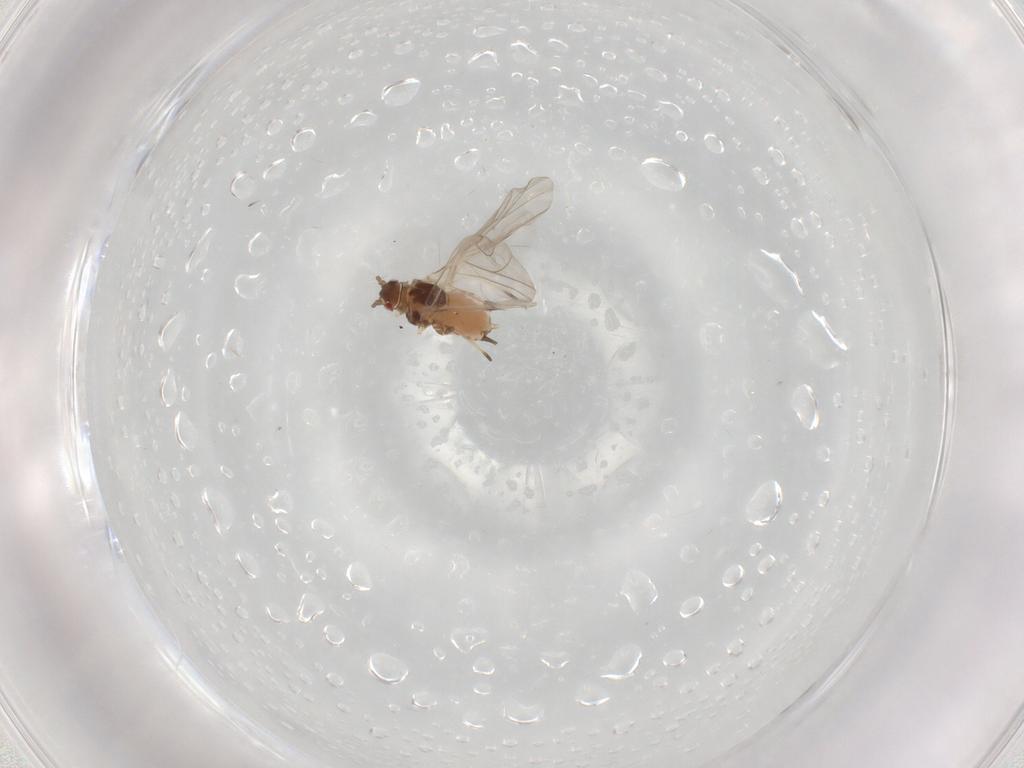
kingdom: Animalia
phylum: Arthropoda
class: Insecta
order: Hemiptera
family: Aphididae
